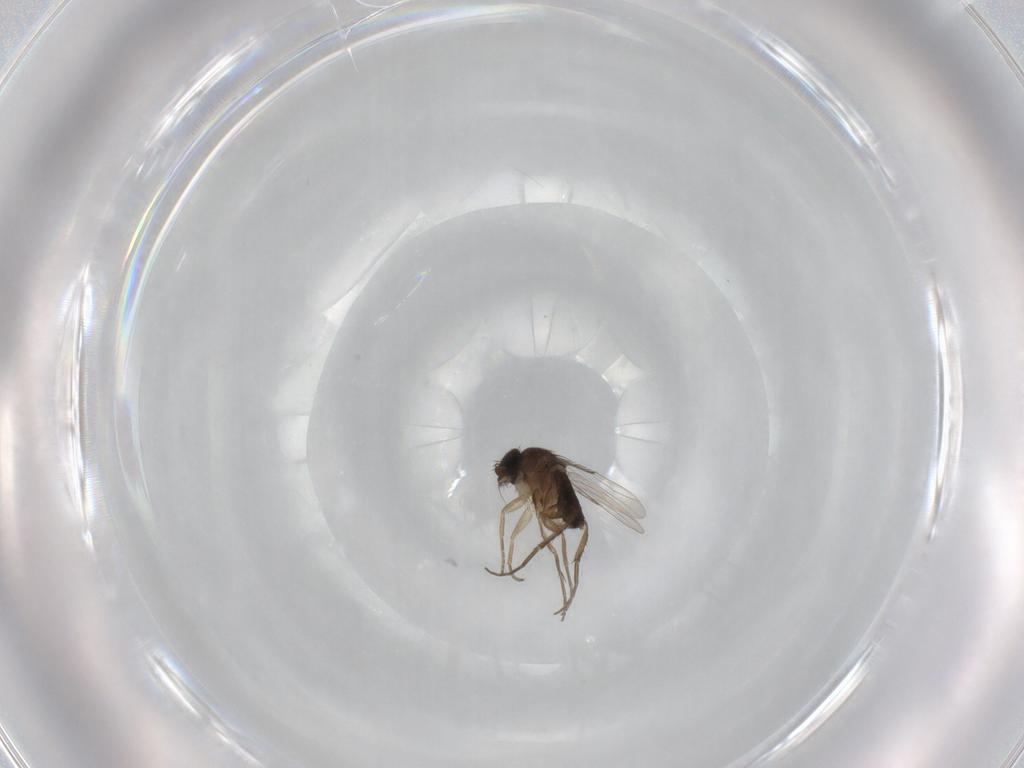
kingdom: Animalia
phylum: Arthropoda
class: Insecta
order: Diptera
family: Phoridae
